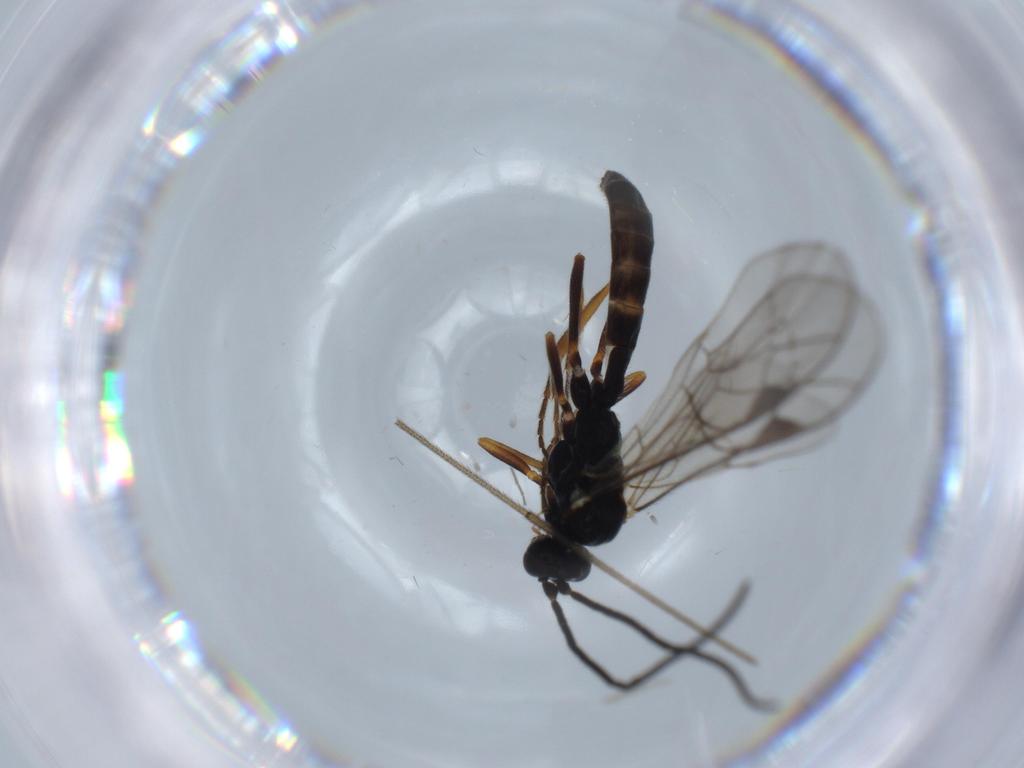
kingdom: Animalia
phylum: Arthropoda
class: Insecta
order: Hymenoptera
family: Ichneumonidae
